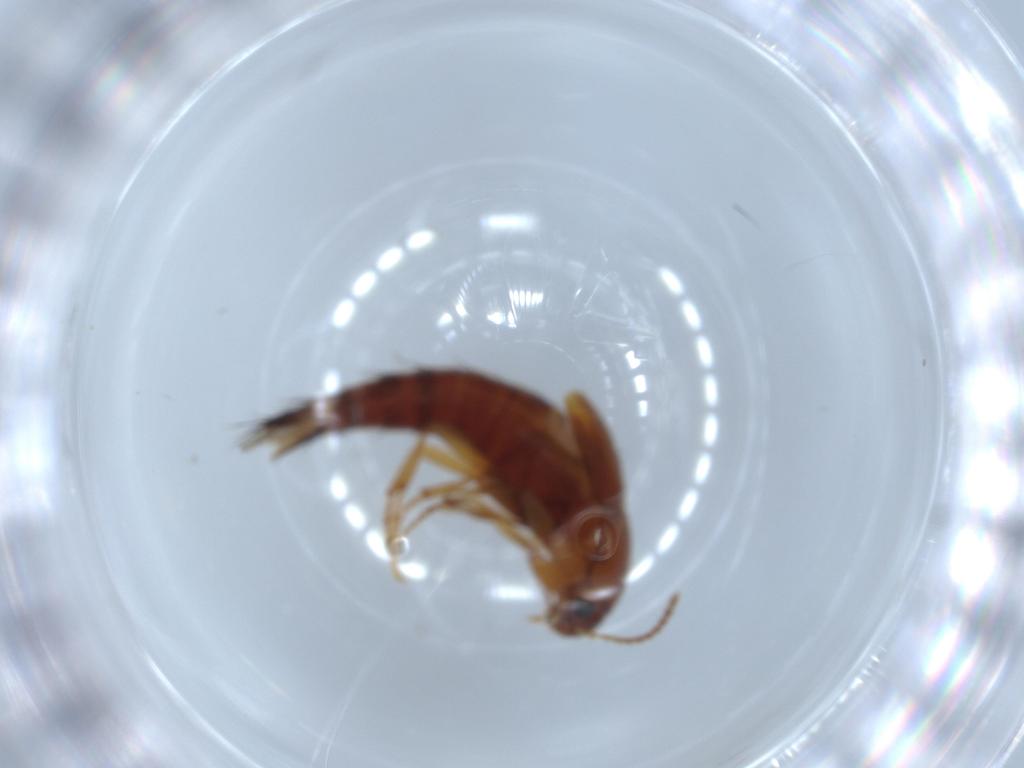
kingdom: Animalia
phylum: Arthropoda
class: Insecta
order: Coleoptera
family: Staphylinidae
